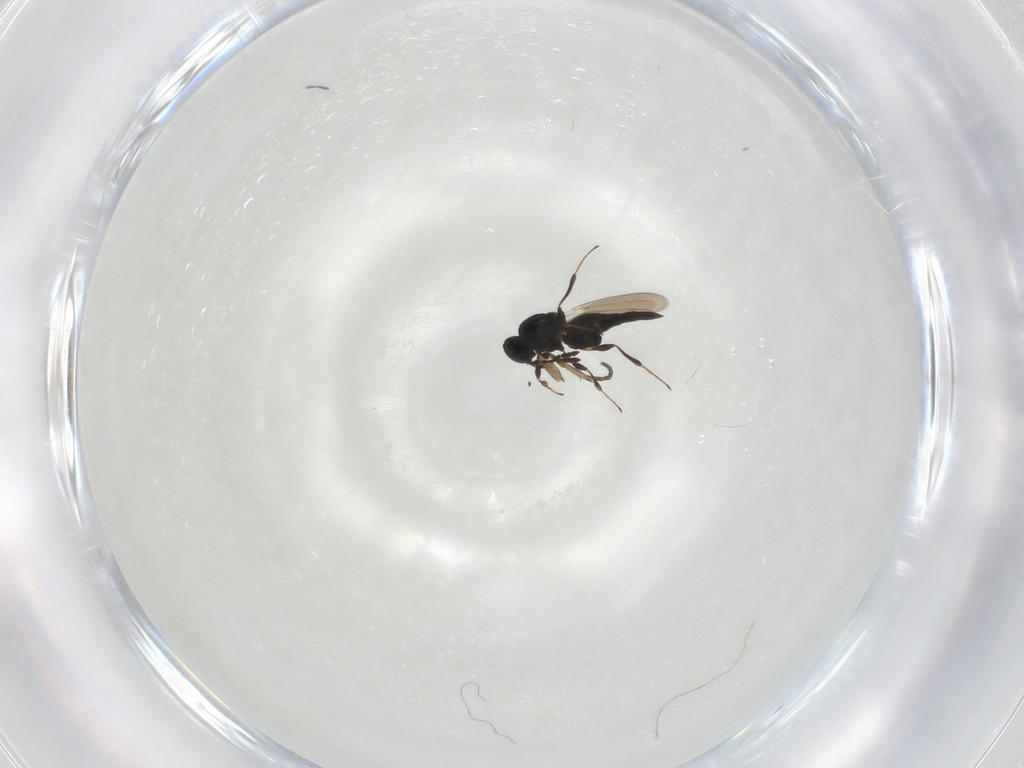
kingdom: Animalia
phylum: Arthropoda
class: Insecta
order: Hymenoptera
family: Platygastridae
